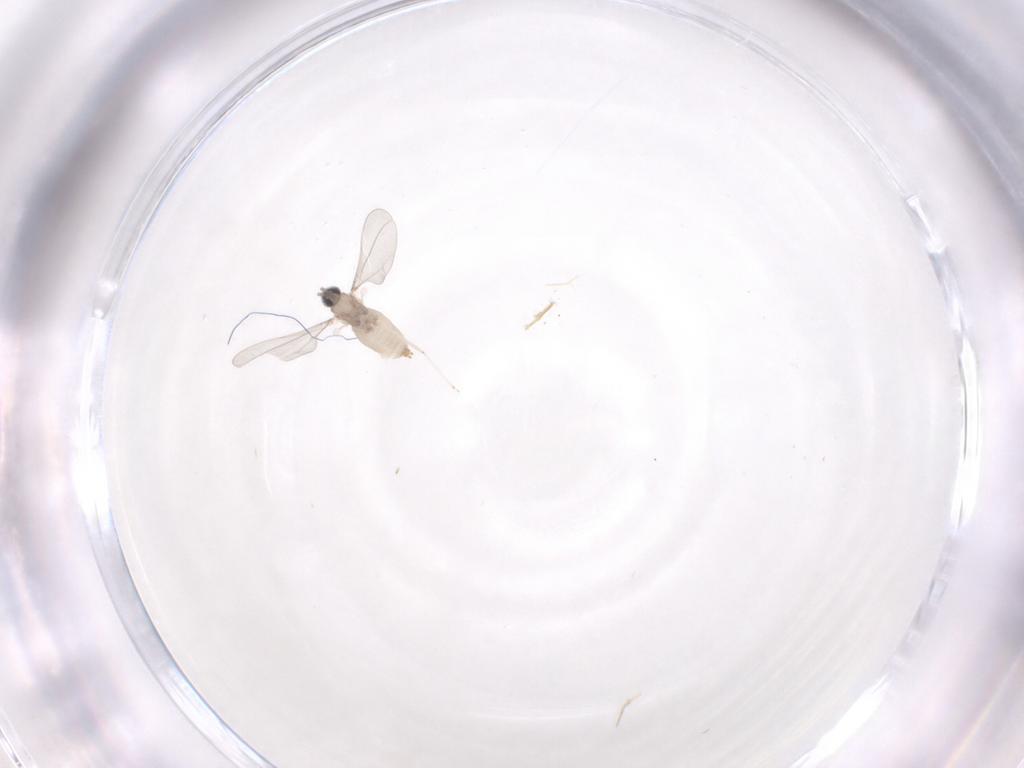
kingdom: Animalia
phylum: Arthropoda
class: Insecta
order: Diptera
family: Cecidomyiidae
